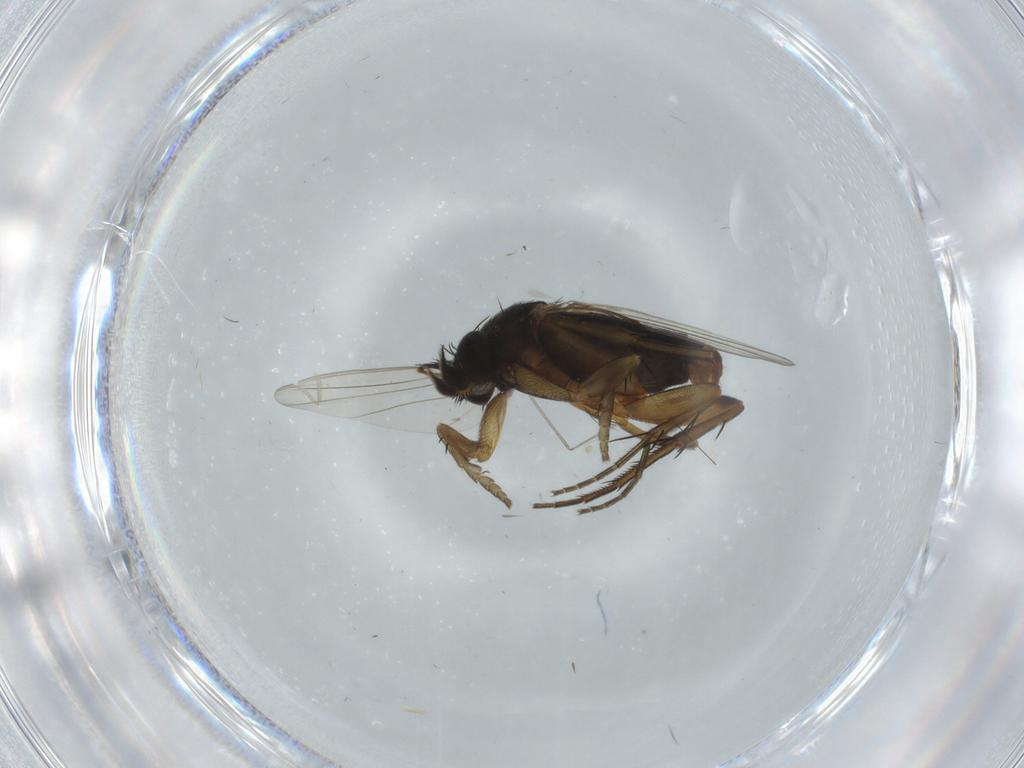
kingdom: Animalia
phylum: Arthropoda
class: Insecta
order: Diptera
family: Phoridae
